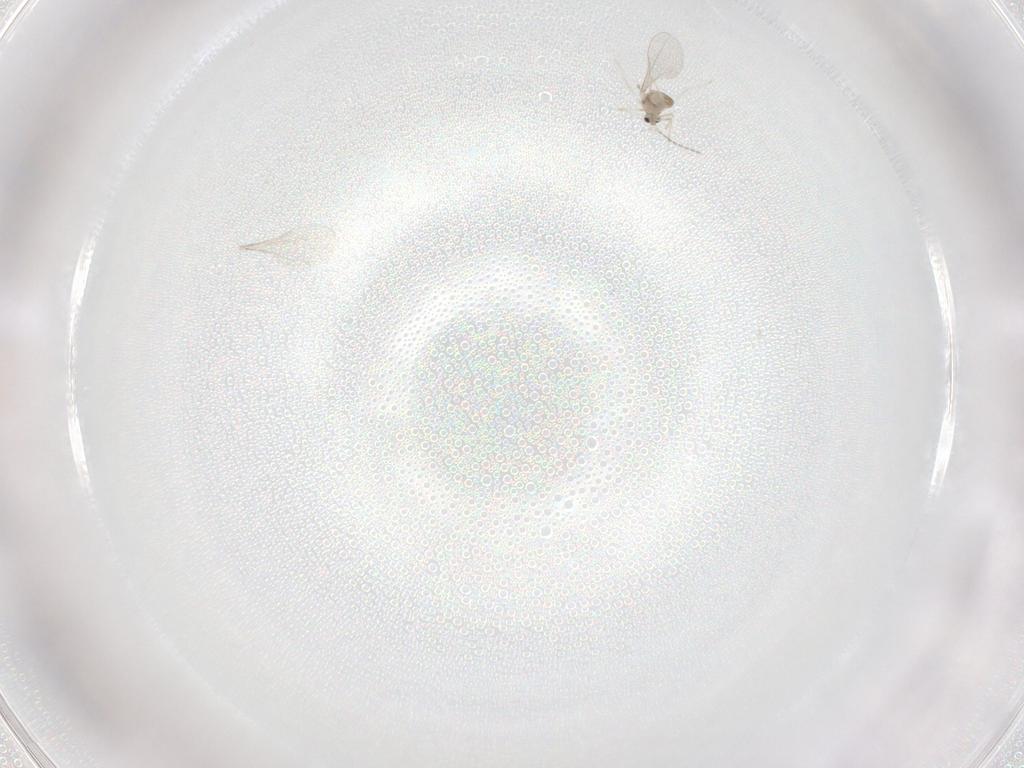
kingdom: Animalia
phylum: Arthropoda
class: Insecta
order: Diptera
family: Cecidomyiidae
